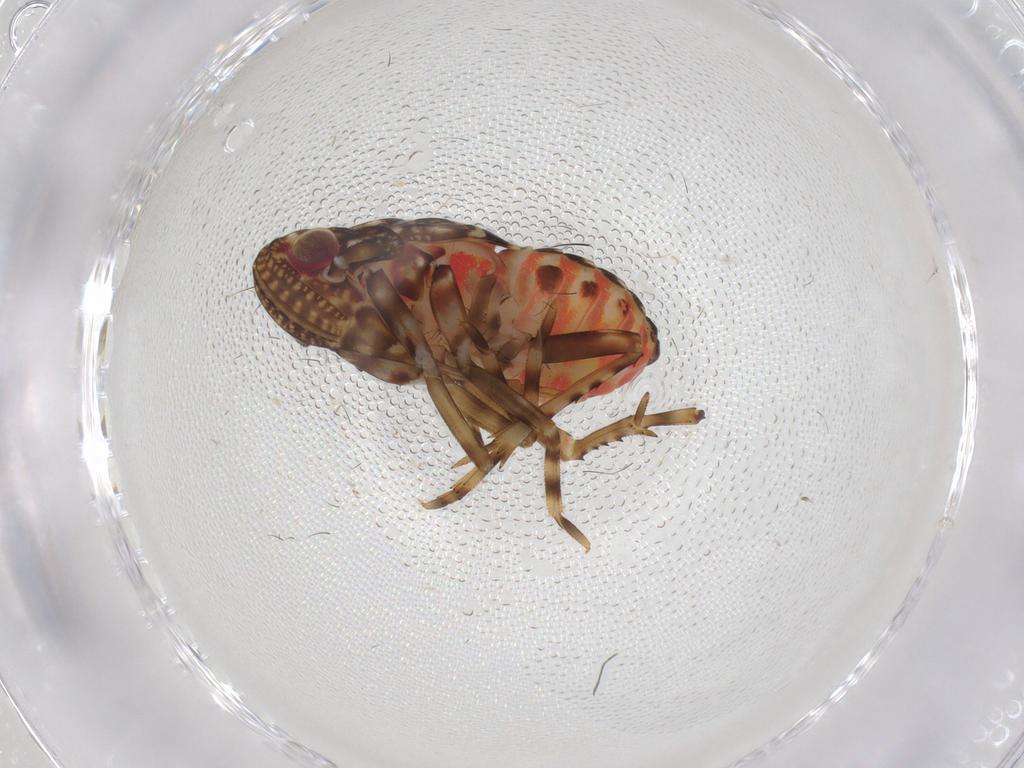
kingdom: Animalia
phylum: Arthropoda
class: Insecta
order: Hemiptera
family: Delphacidae
